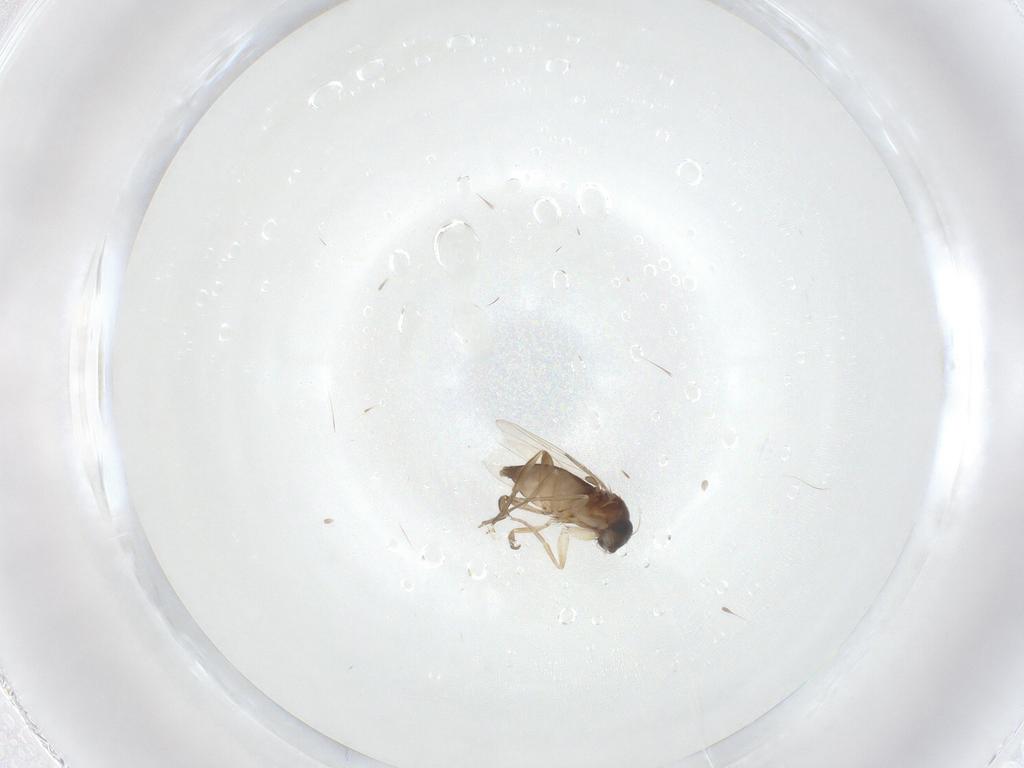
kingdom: Animalia
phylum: Arthropoda
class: Insecta
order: Diptera
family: Phoridae
